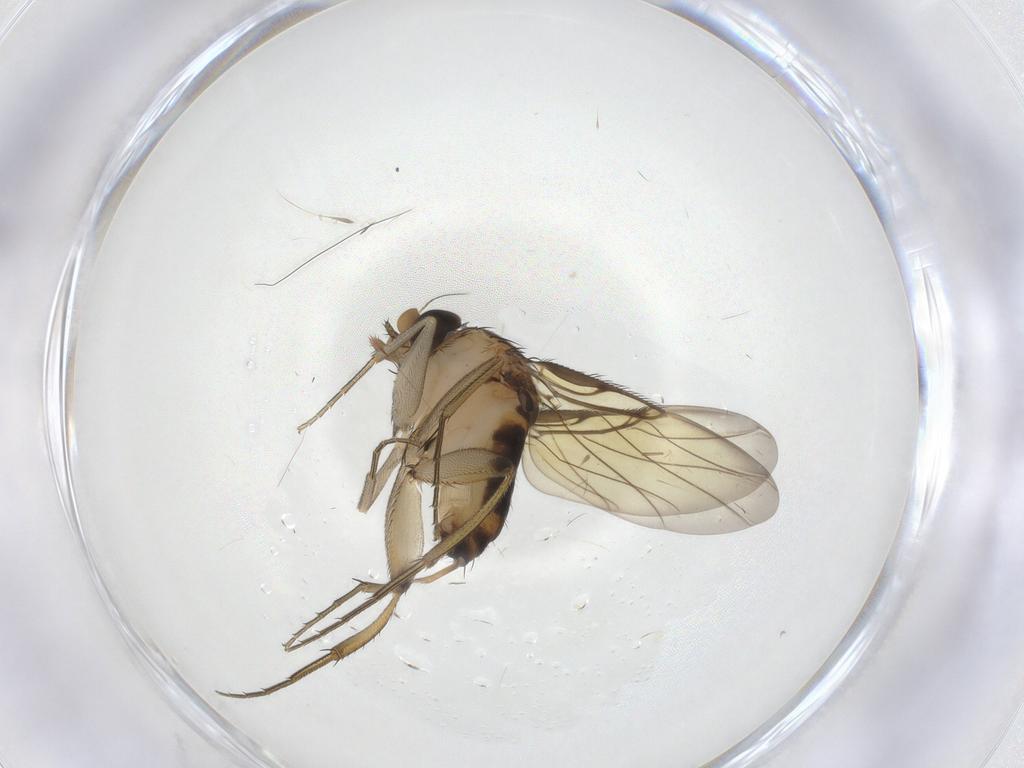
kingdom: Animalia
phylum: Arthropoda
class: Insecta
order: Diptera
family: Phoridae
